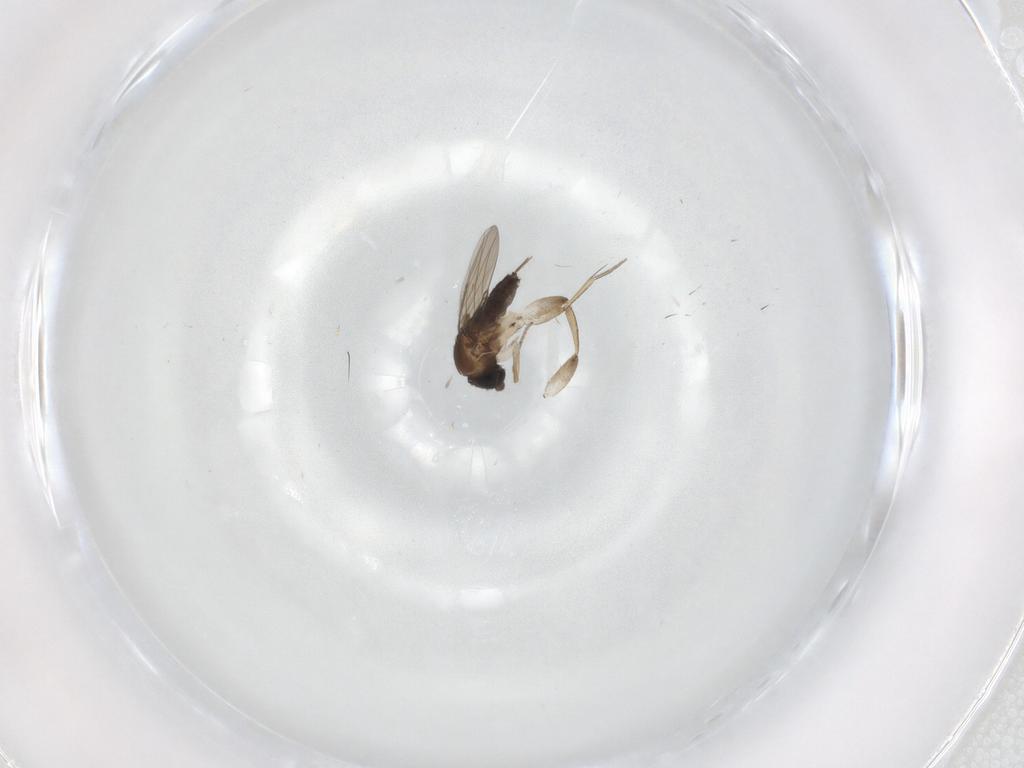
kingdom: Animalia
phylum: Arthropoda
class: Insecta
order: Diptera
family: Phoridae
